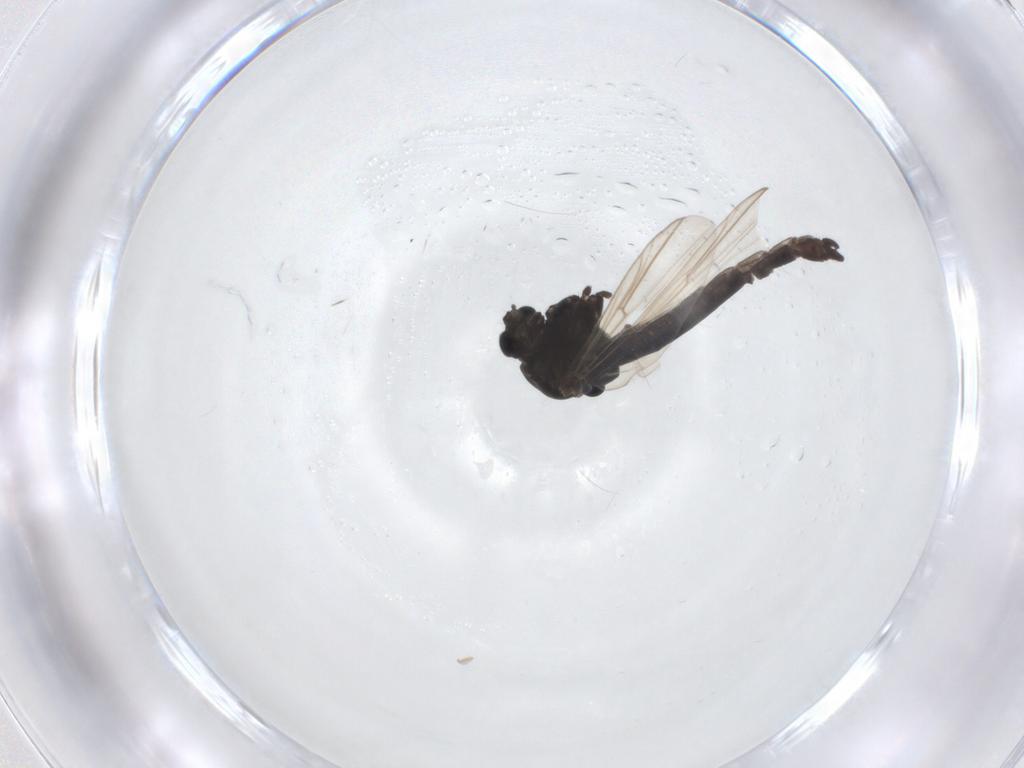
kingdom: Animalia
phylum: Arthropoda
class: Insecta
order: Diptera
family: Chironomidae
